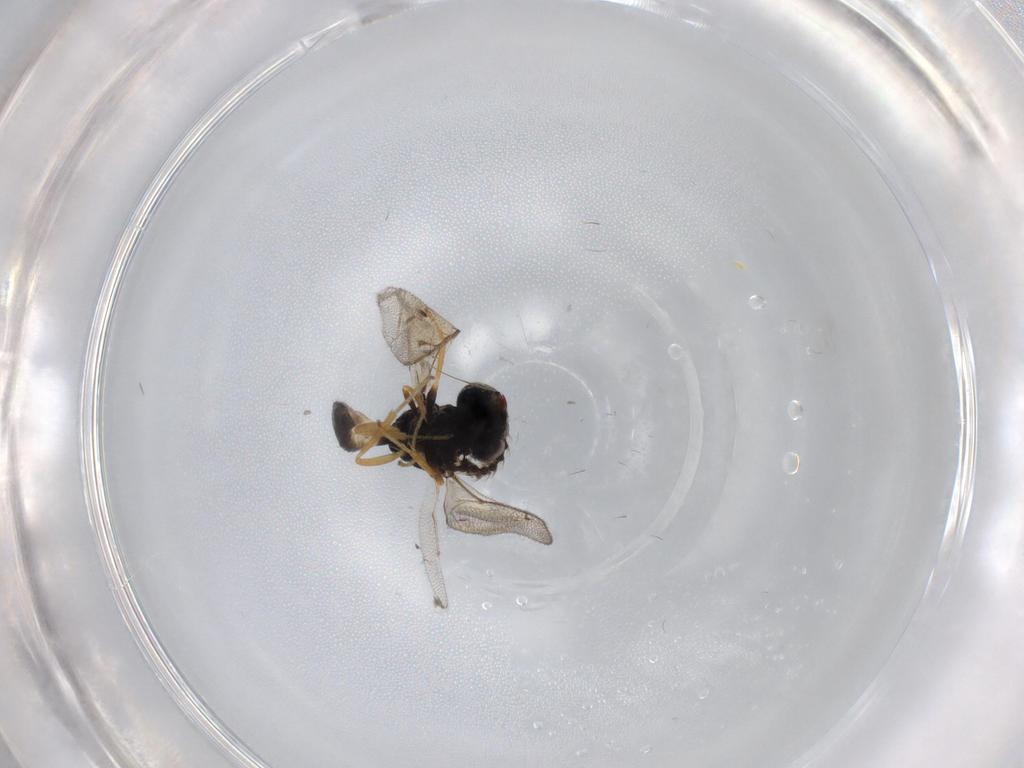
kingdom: Animalia
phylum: Arthropoda
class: Insecta
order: Hymenoptera
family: Pteromalidae
